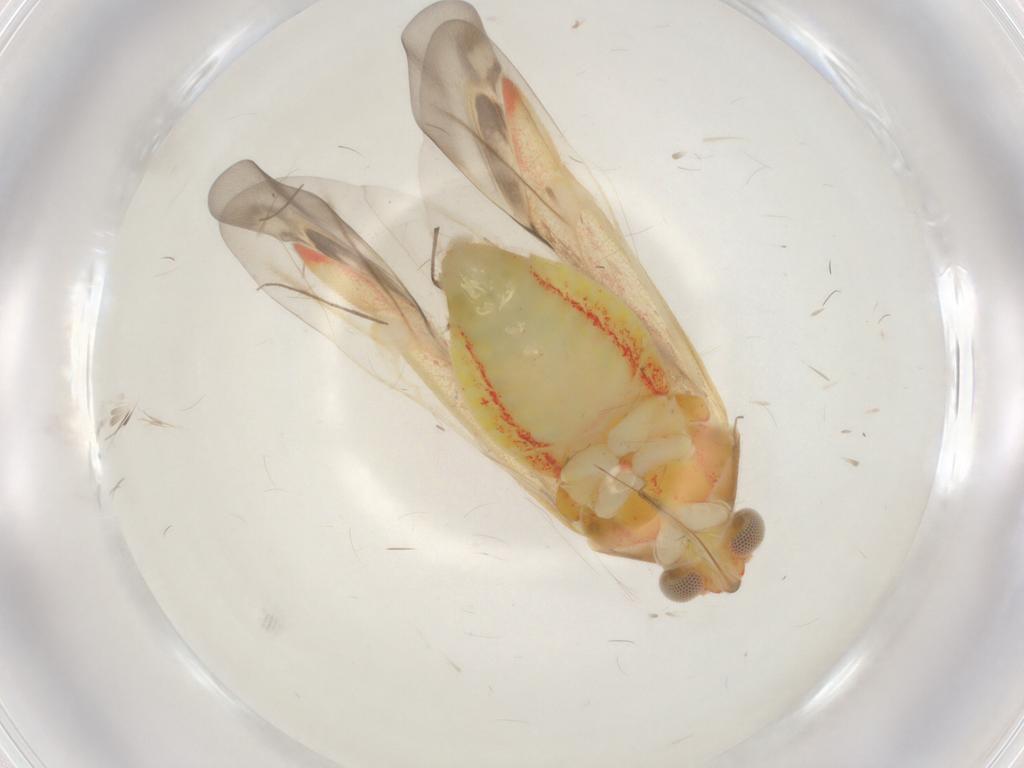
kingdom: Animalia
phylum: Arthropoda
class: Insecta
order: Hemiptera
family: Miridae
